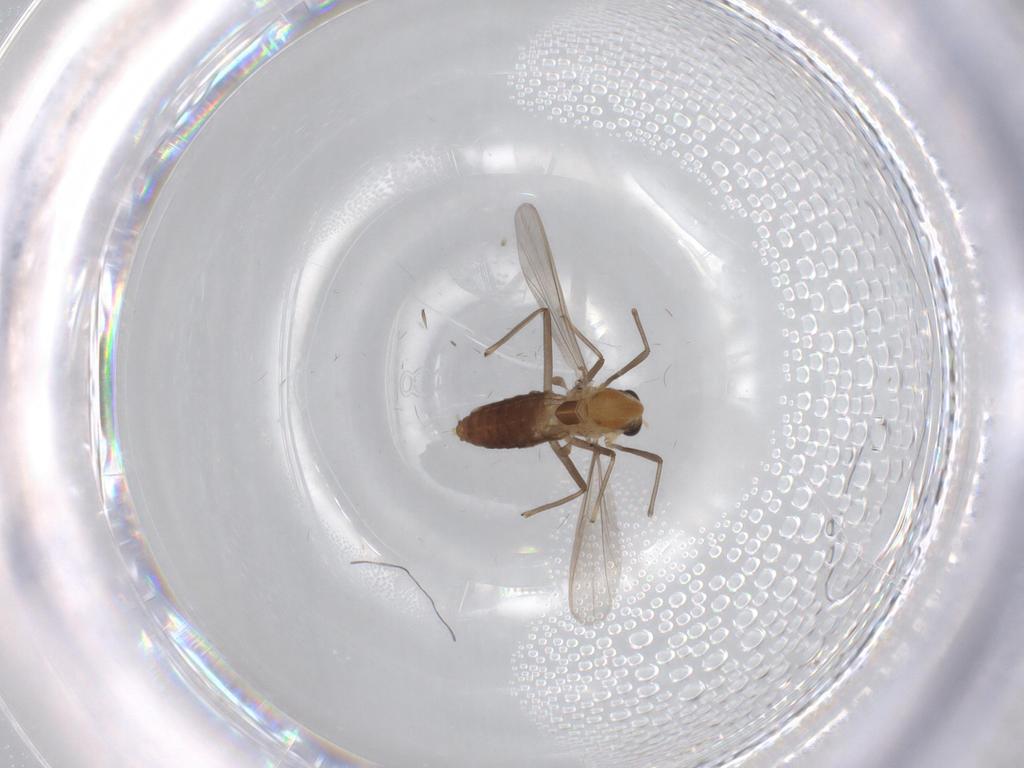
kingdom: Animalia
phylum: Arthropoda
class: Insecta
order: Diptera
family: Chironomidae
